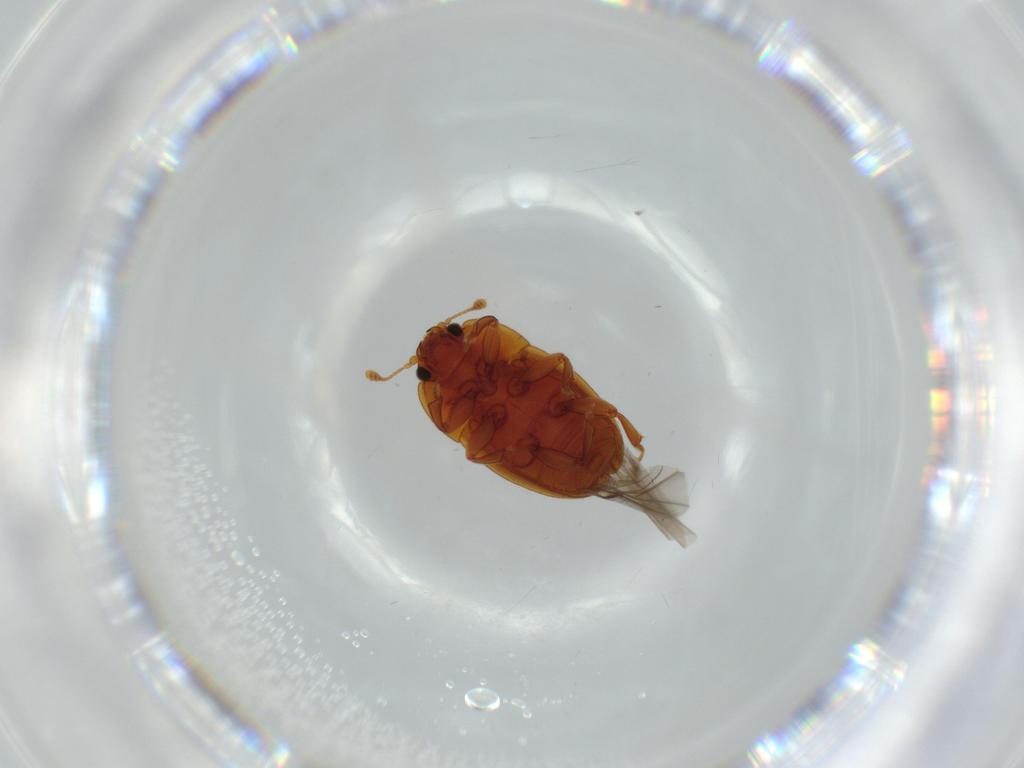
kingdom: Animalia
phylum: Arthropoda
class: Insecta
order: Coleoptera
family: Nitidulidae
